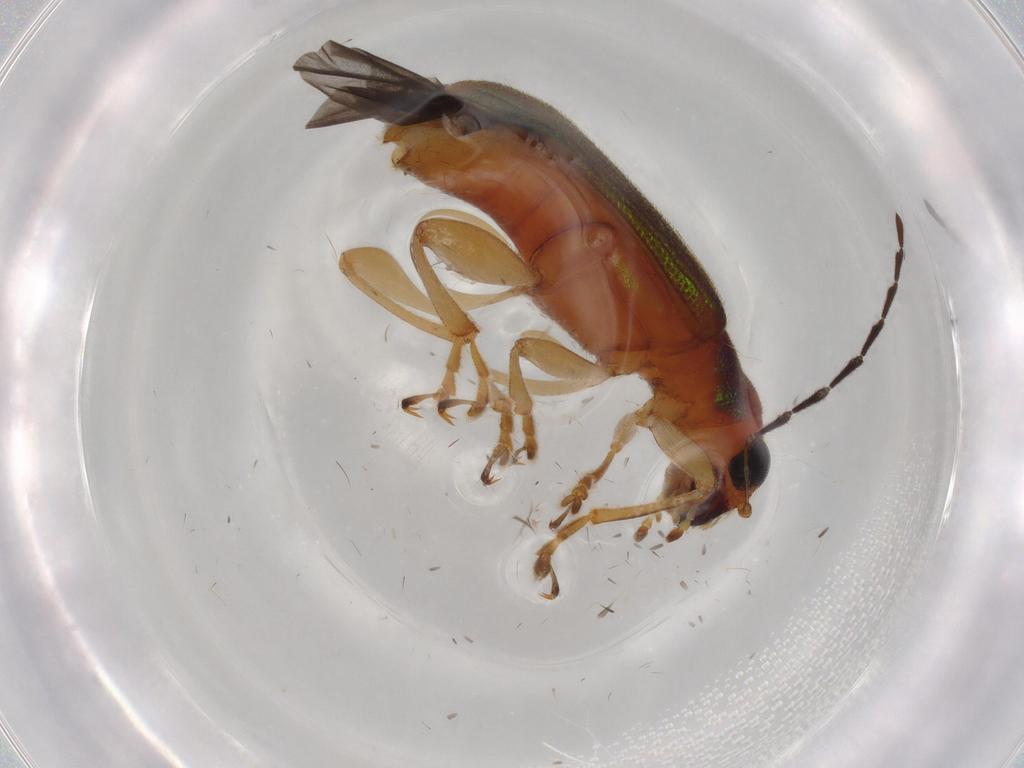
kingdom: Animalia
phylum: Arthropoda
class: Insecta
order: Coleoptera
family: Chrysomelidae
